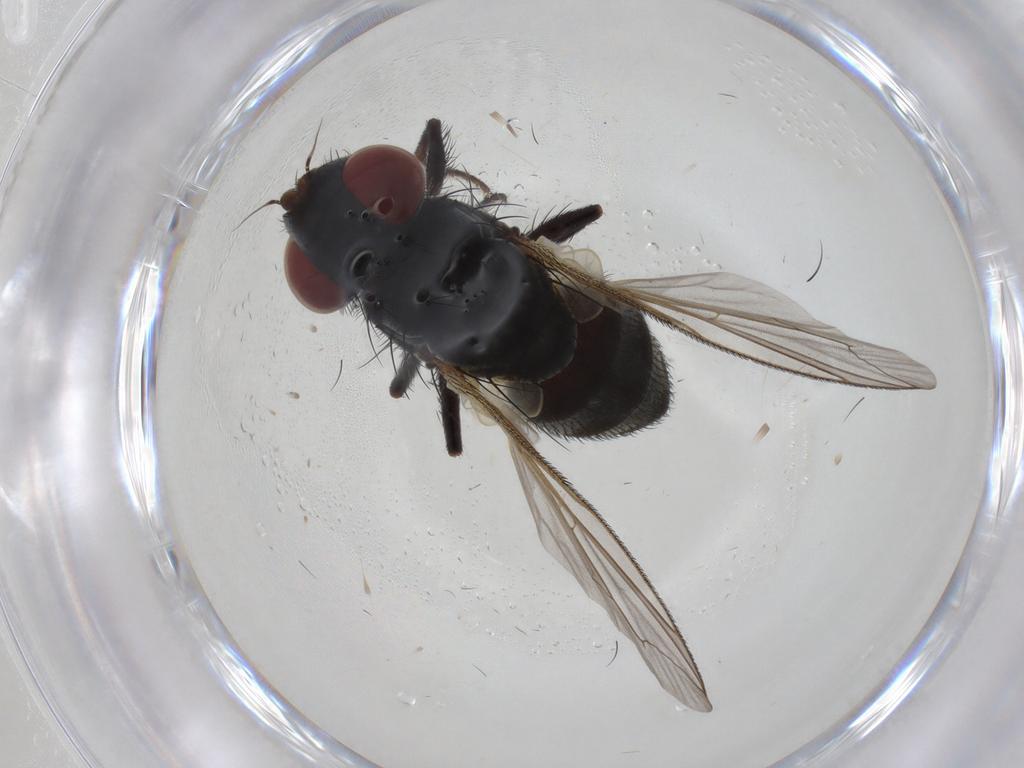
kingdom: Animalia
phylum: Arthropoda
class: Insecta
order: Diptera
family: Sarcophagidae
